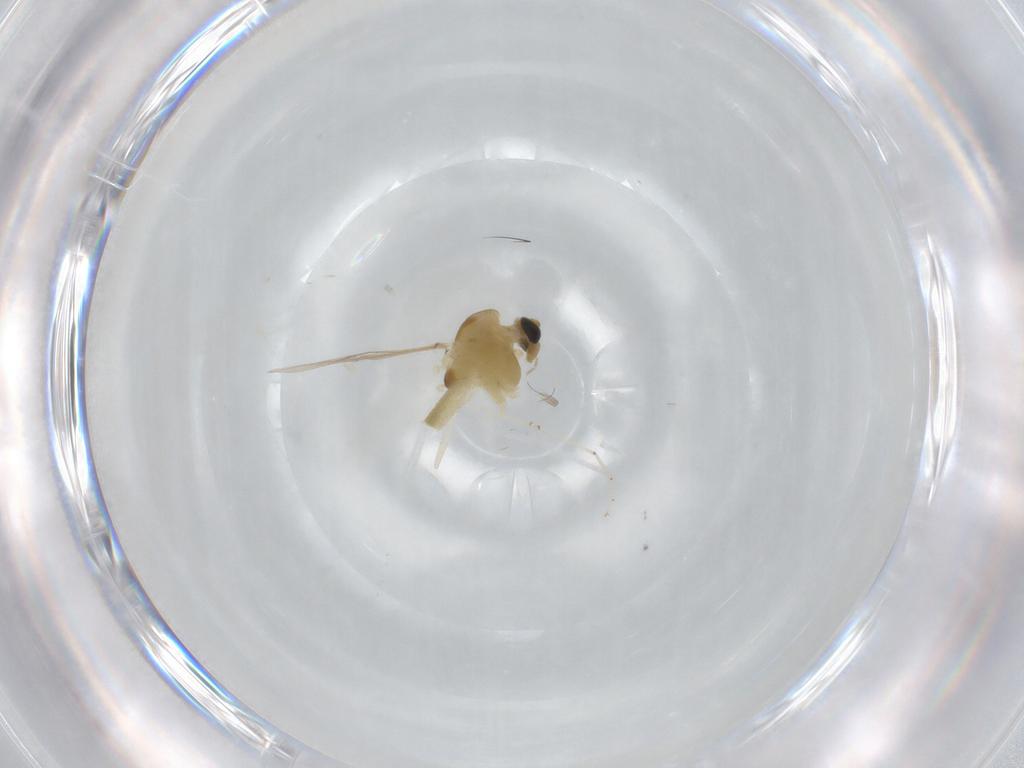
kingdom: Animalia
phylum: Arthropoda
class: Insecta
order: Diptera
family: Chironomidae
